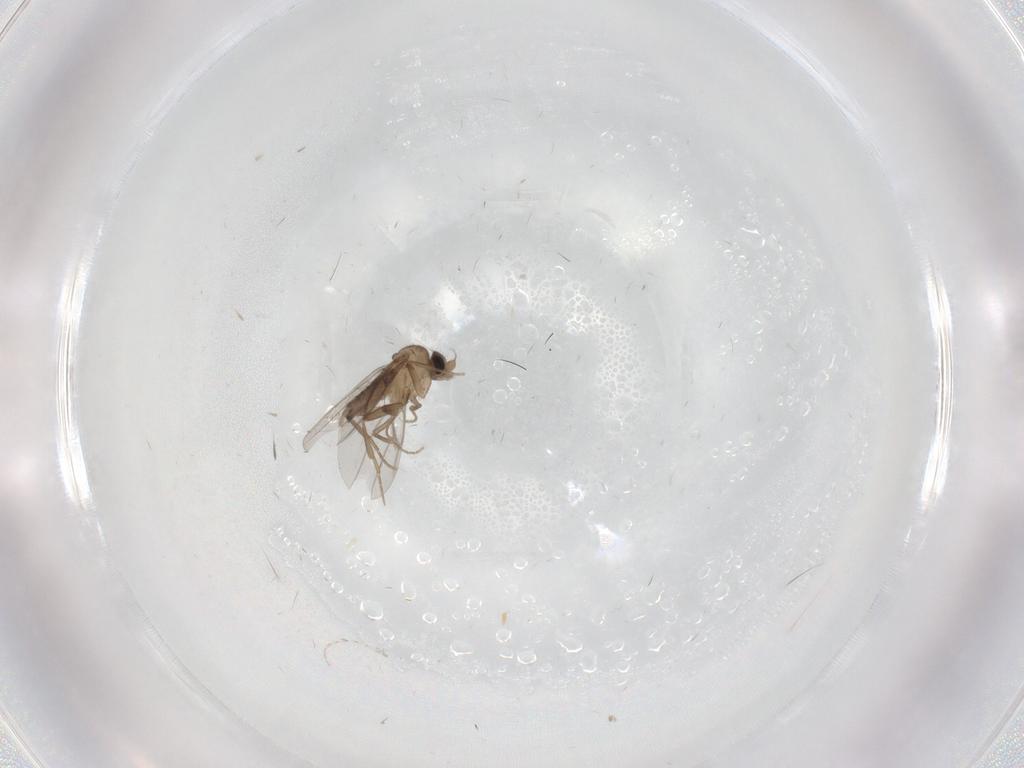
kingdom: Animalia
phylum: Arthropoda
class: Insecta
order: Diptera
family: Cecidomyiidae
